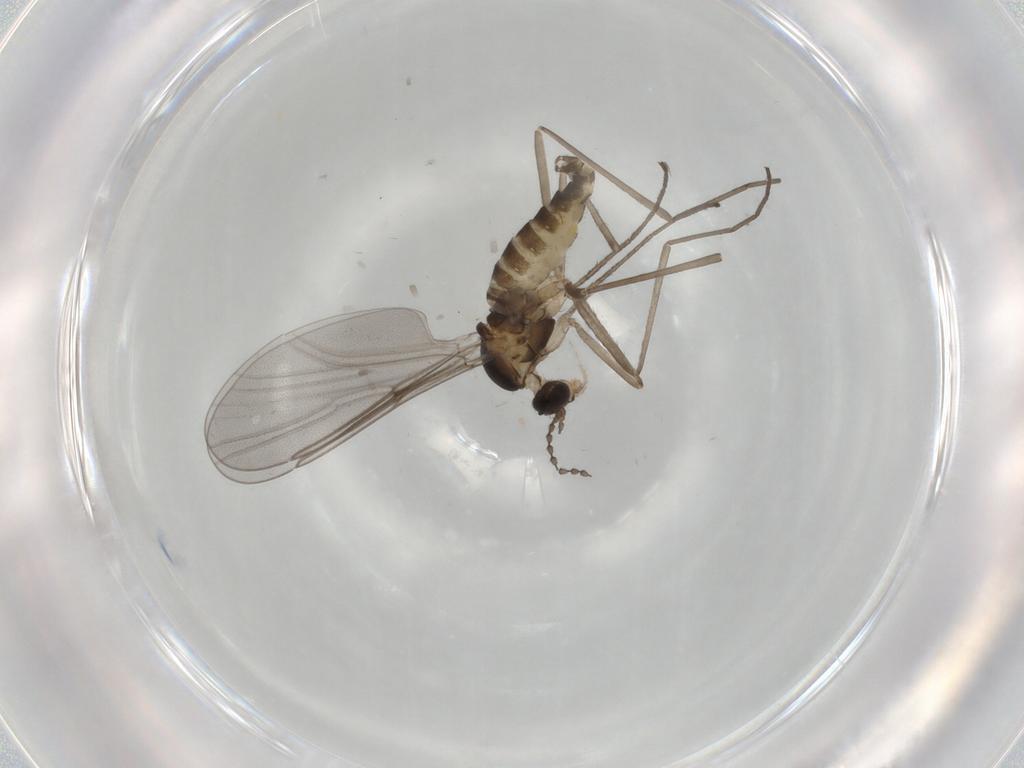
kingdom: Animalia
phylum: Arthropoda
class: Insecta
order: Diptera
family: Cecidomyiidae
